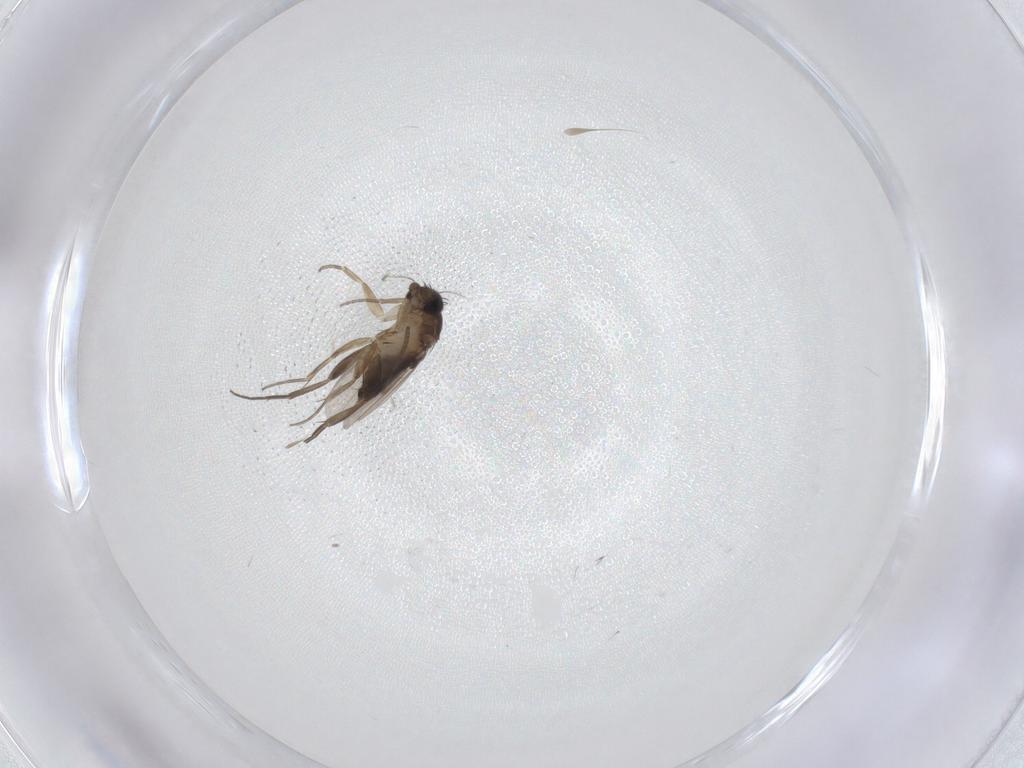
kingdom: Animalia
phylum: Arthropoda
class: Insecta
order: Diptera
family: Phoridae
